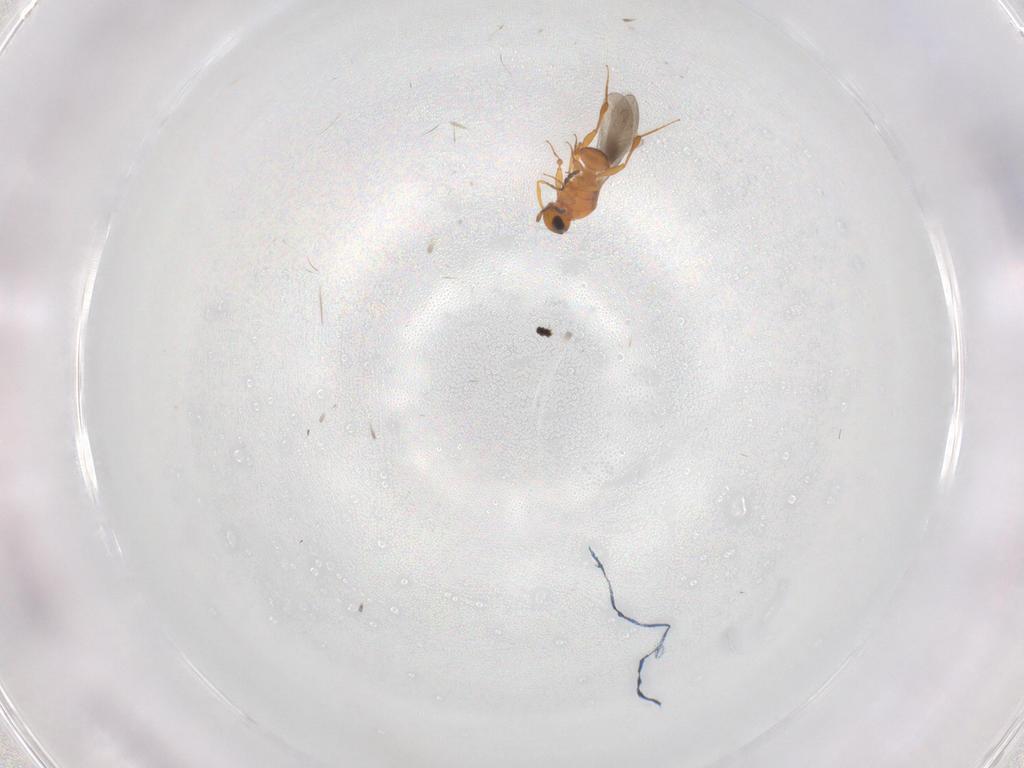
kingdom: Animalia
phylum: Arthropoda
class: Insecta
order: Hymenoptera
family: Platygastridae
